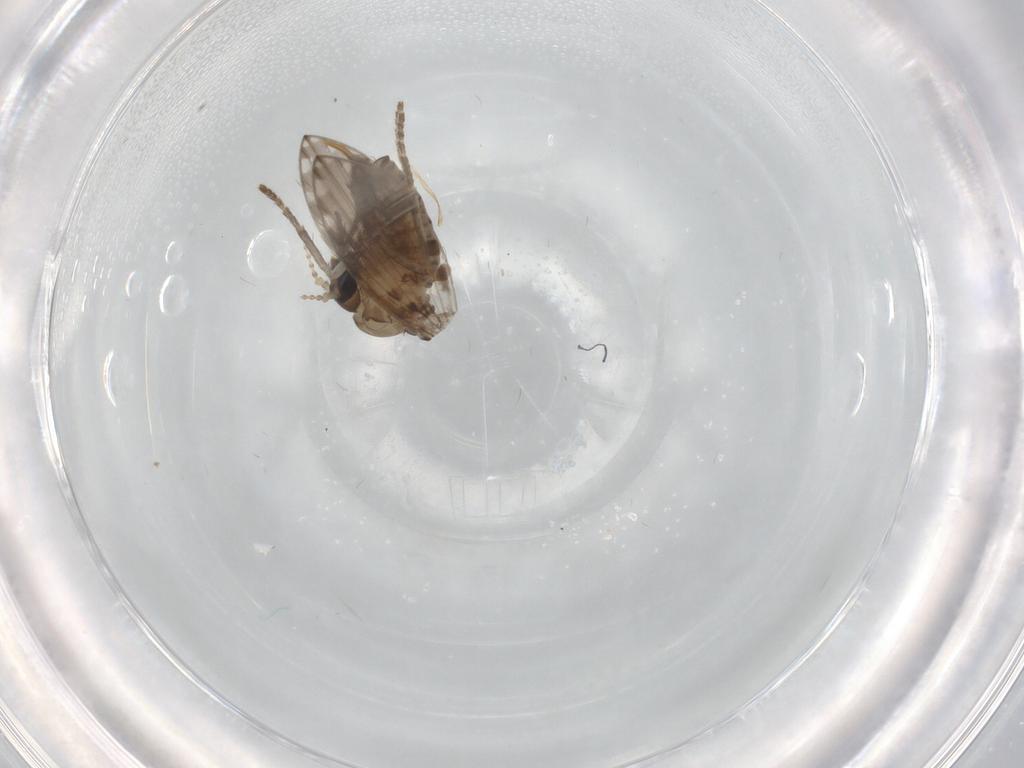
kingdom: Animalia
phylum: Arthropoda
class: Insecta
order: Diptera
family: Psychodidae
